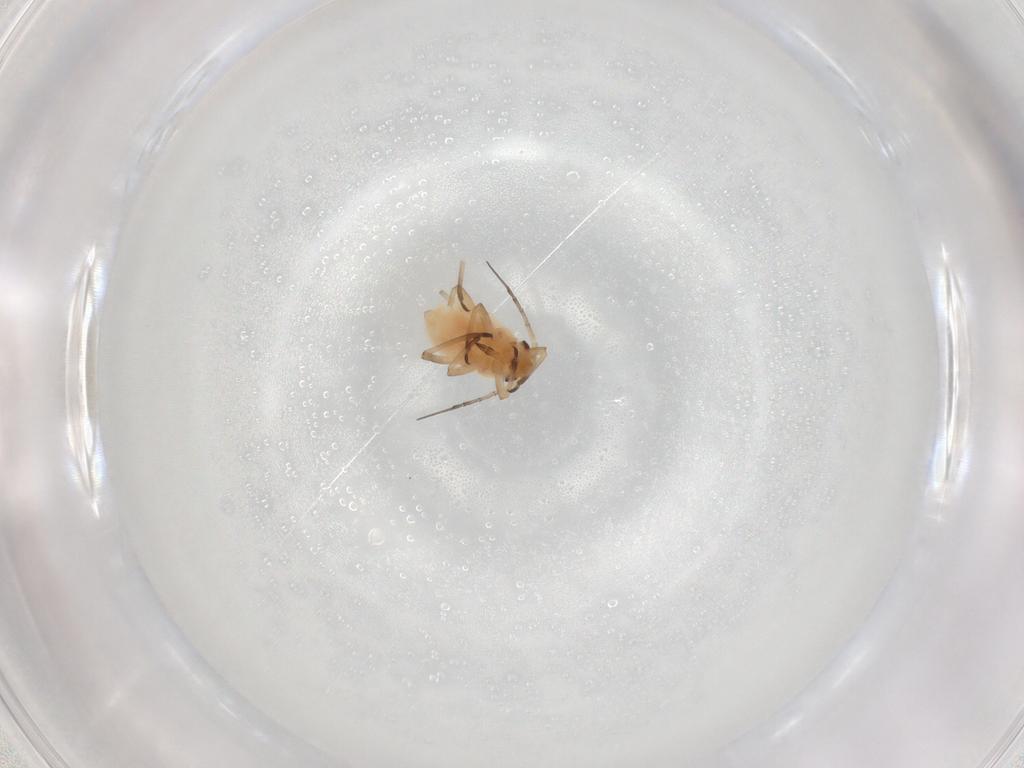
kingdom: Animalia
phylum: Arthropoda
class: Insecta
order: Hemiptera
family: Aphididae
